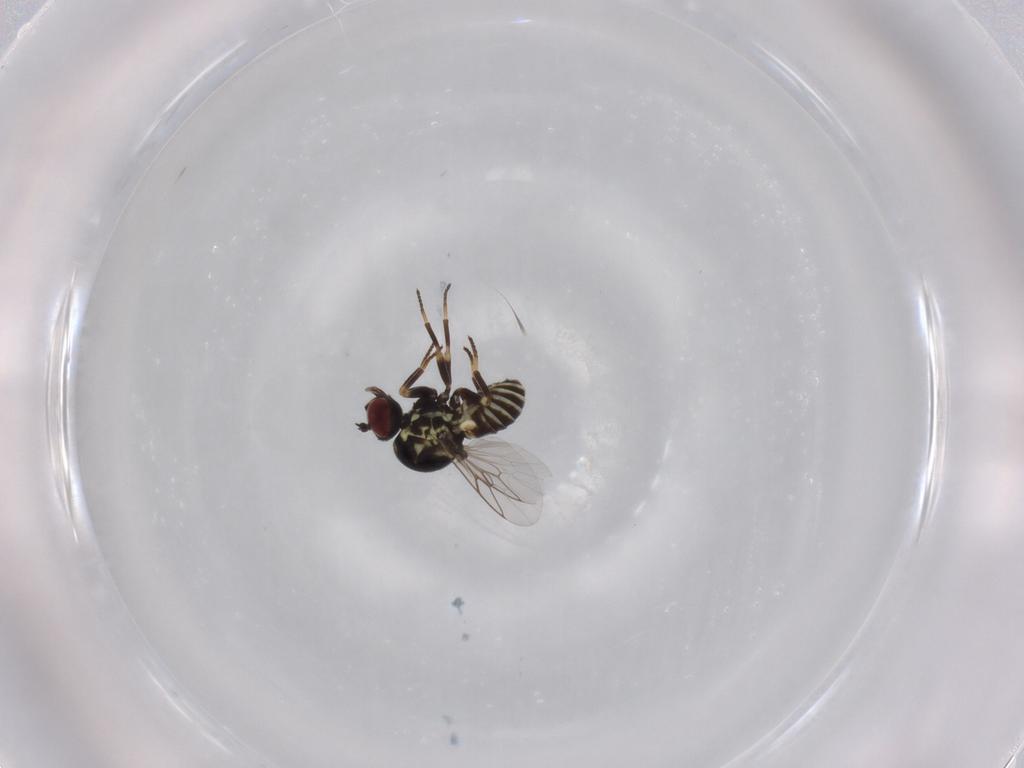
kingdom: Animalia
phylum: Arthropoda
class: Insecta
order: Diptera
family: Mythicomyiidae
